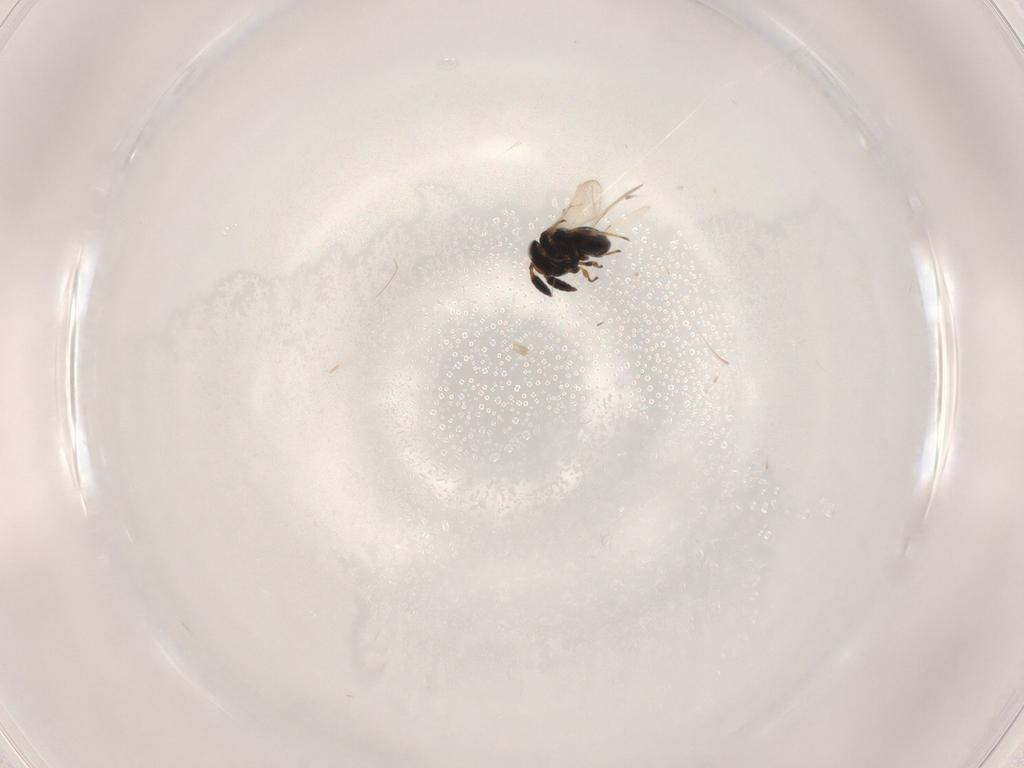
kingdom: Animalia
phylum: Arthropoda
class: Insecta
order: Hymenoptera
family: Scelionidae
